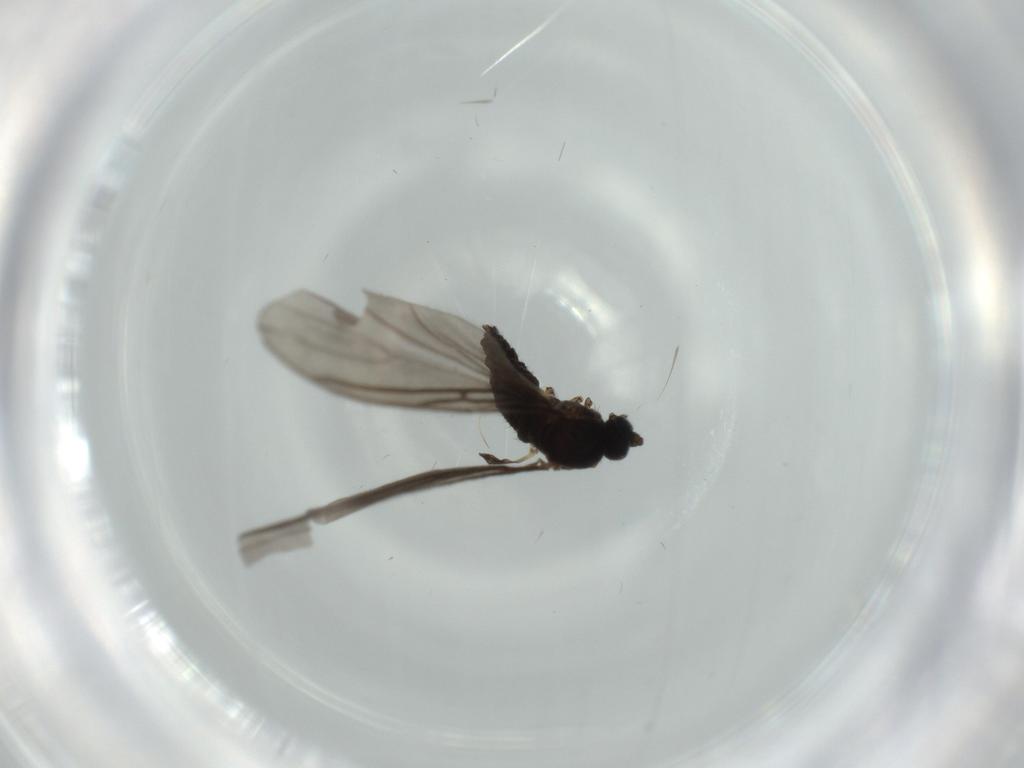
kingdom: Animalia
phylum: Arthropoda
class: Insecta
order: Diptera
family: Sciaridae
